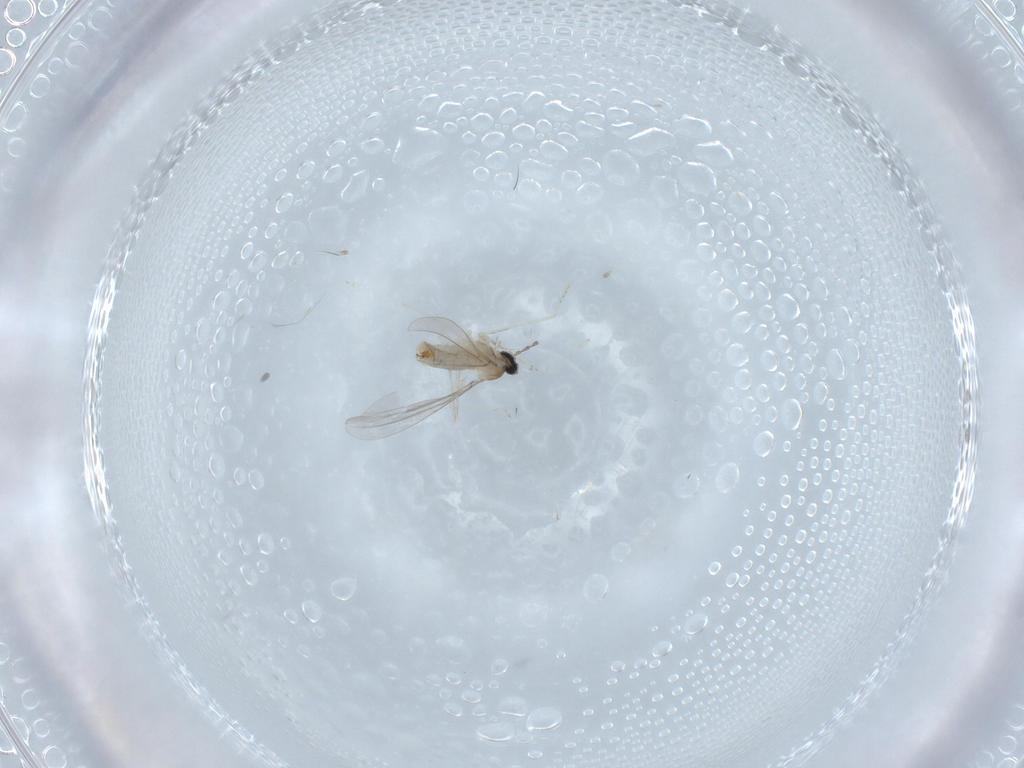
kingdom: Animalia
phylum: Arthropoda
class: Insecta
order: Diptera
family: Cecidomyiidae
